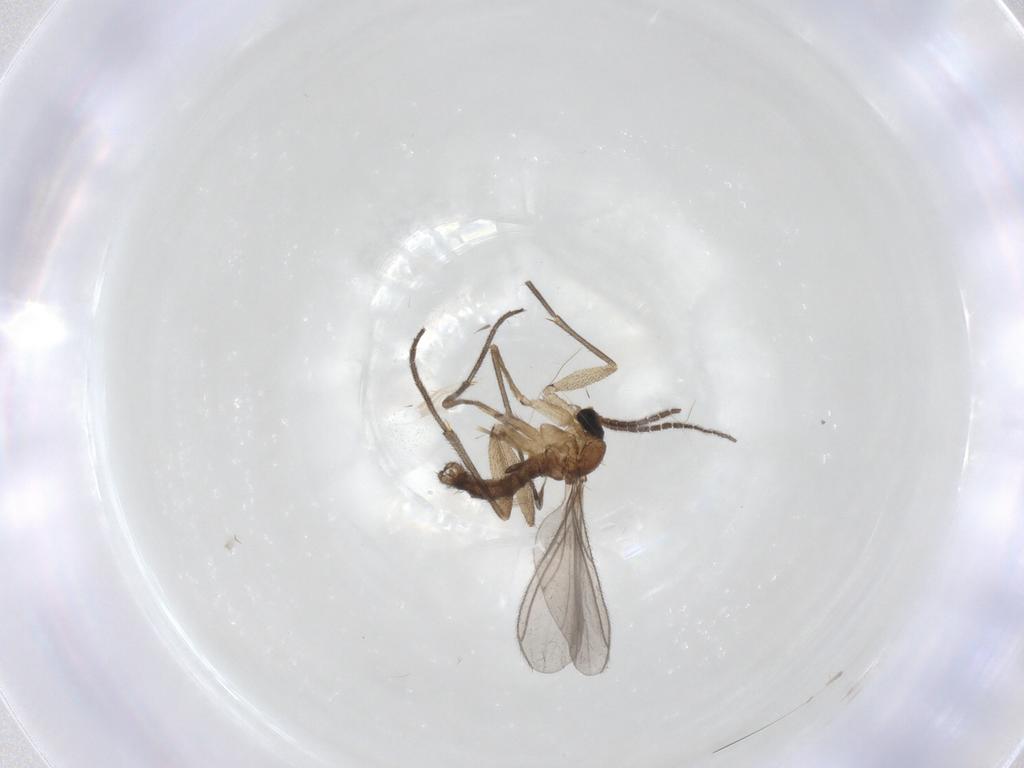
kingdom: Animalia
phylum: Arthropoda
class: Insecta
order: Diptera
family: Sciaridae
